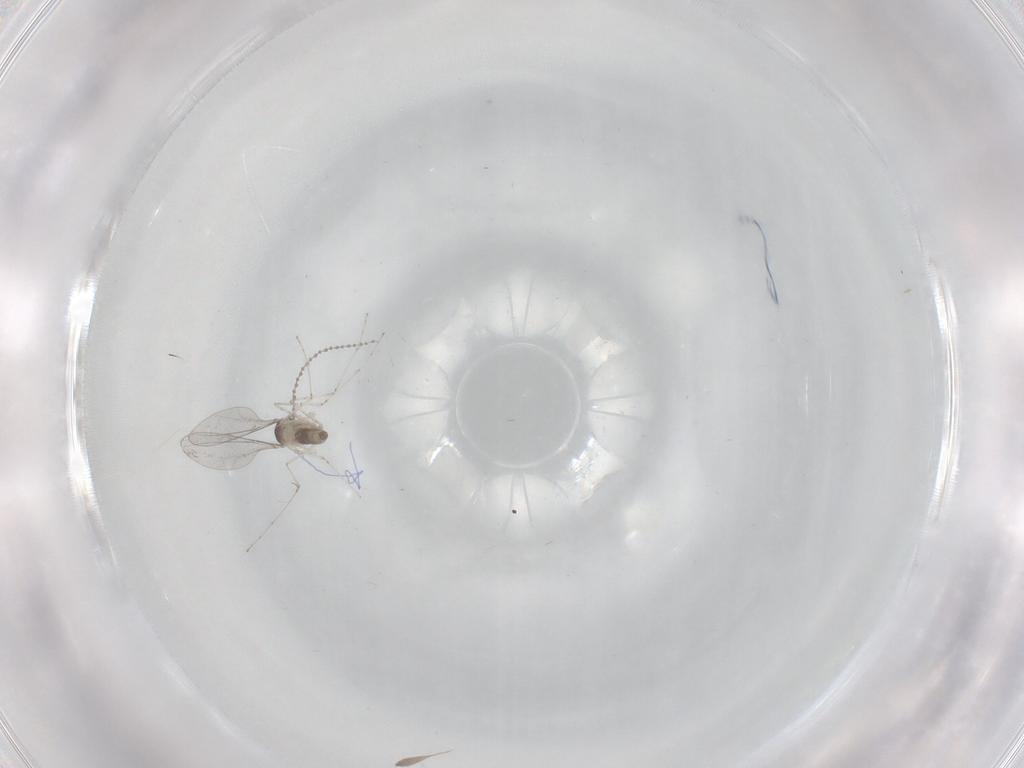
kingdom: Animalia
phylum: Arthropoda
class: Insecta
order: Diptera
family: Cecidomyiidae
